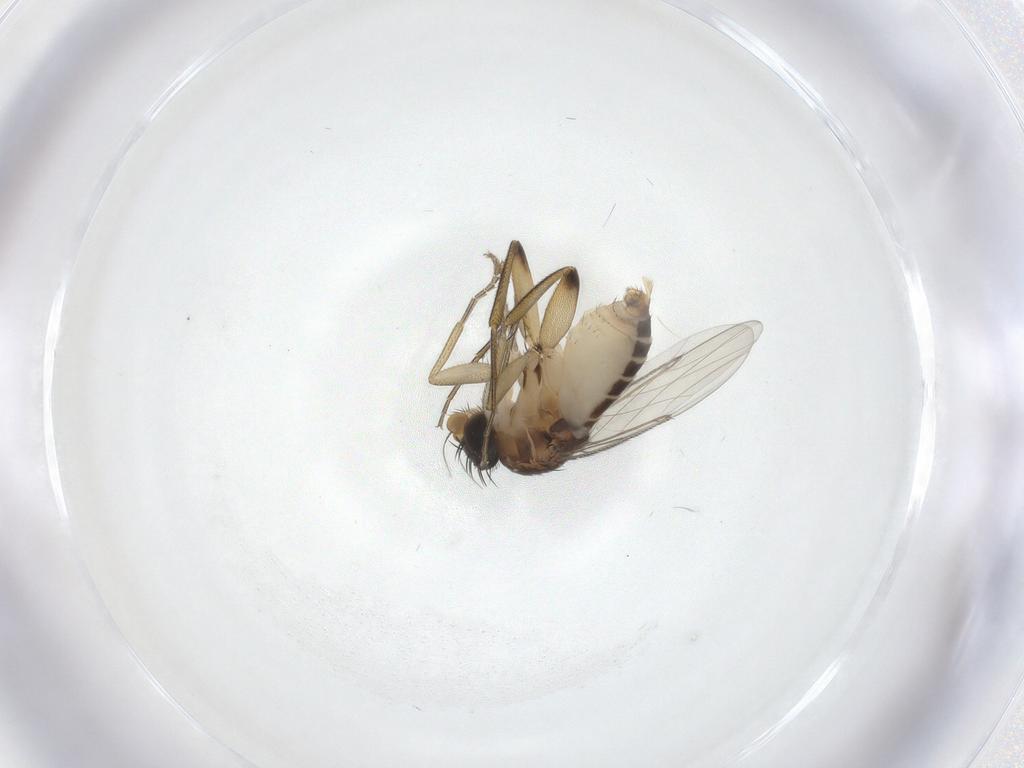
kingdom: Animalia
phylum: Arthropoda
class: Insecta
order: Diptera
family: Phoridae
